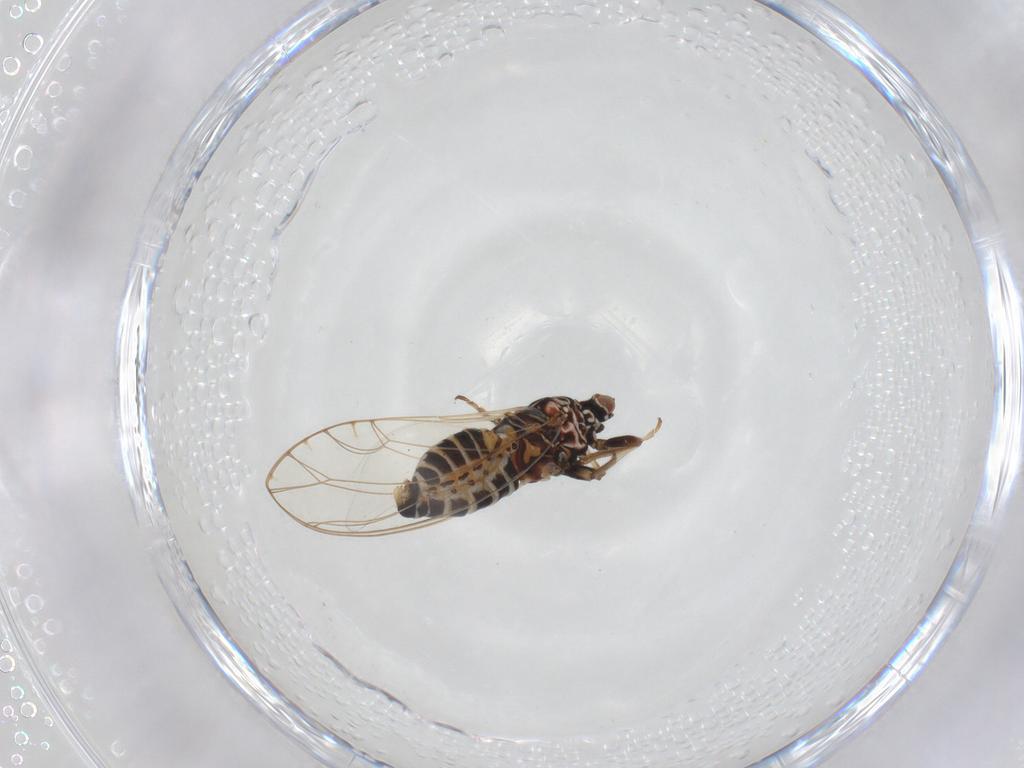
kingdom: Animalia
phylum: Arthropoda
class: Insecta
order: Hemiptera
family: Triozidae
